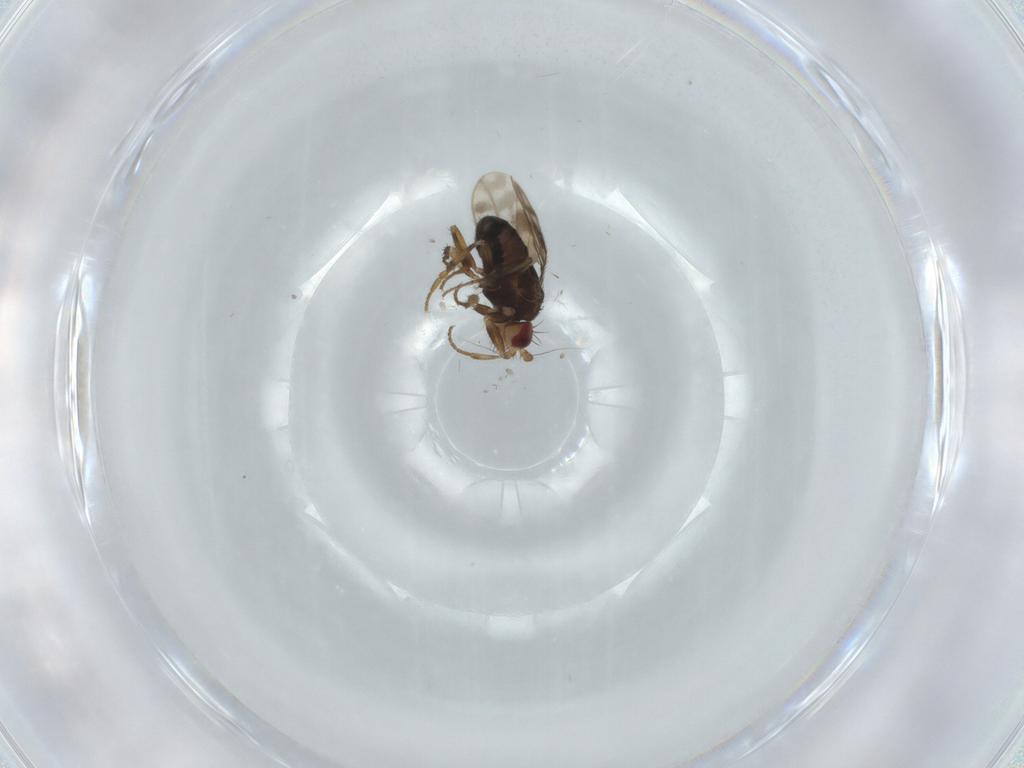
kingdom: Animalia
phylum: Arthropoda
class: Insecta
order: Diptera
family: Sphaeroceridae
